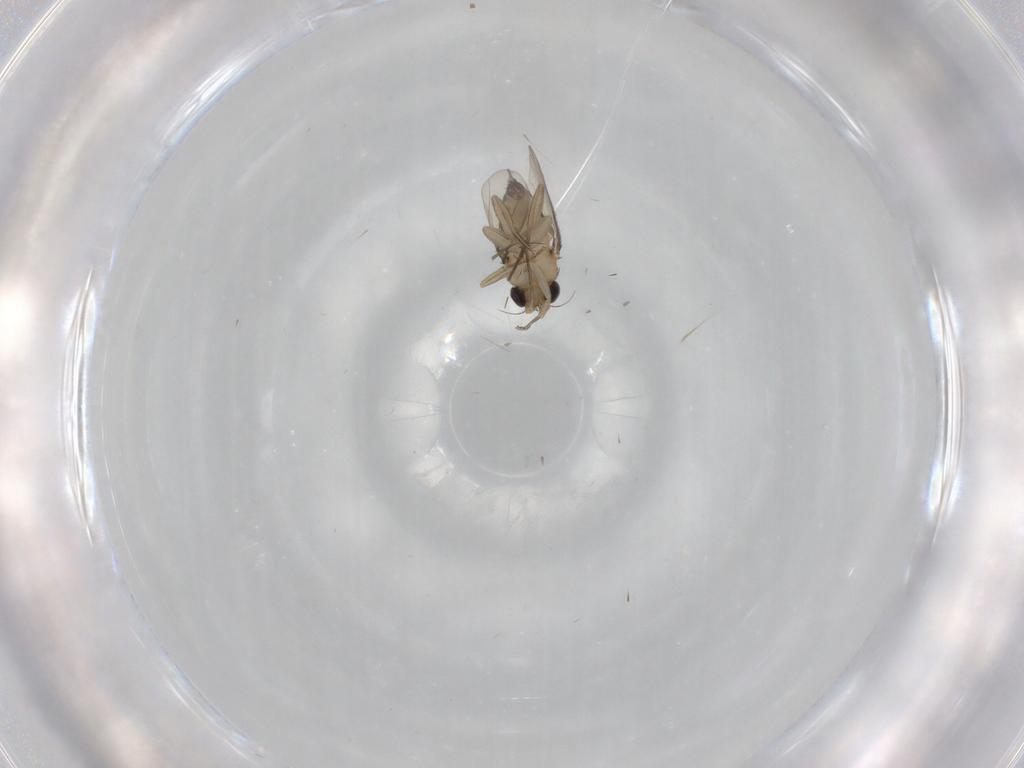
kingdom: Animalia
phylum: Arthropoda
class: Insecta
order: Diptera
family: Phoridae
